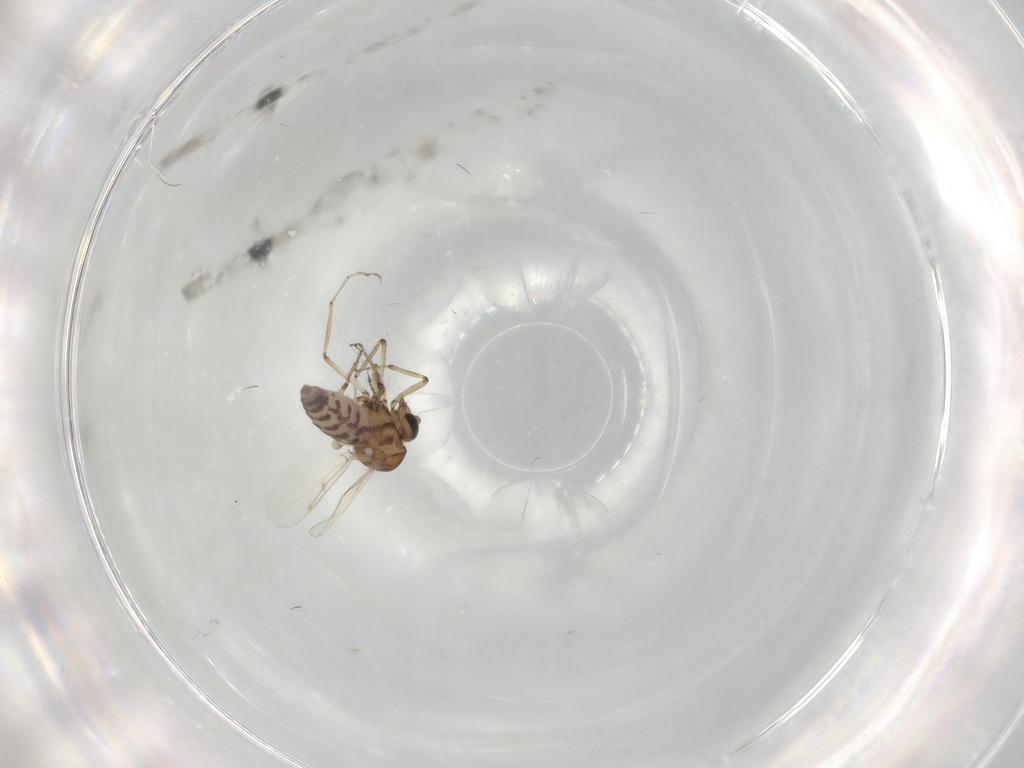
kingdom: Animalia
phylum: Arthropoda
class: Insecta
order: Diptera
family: Ceratopogonidae
